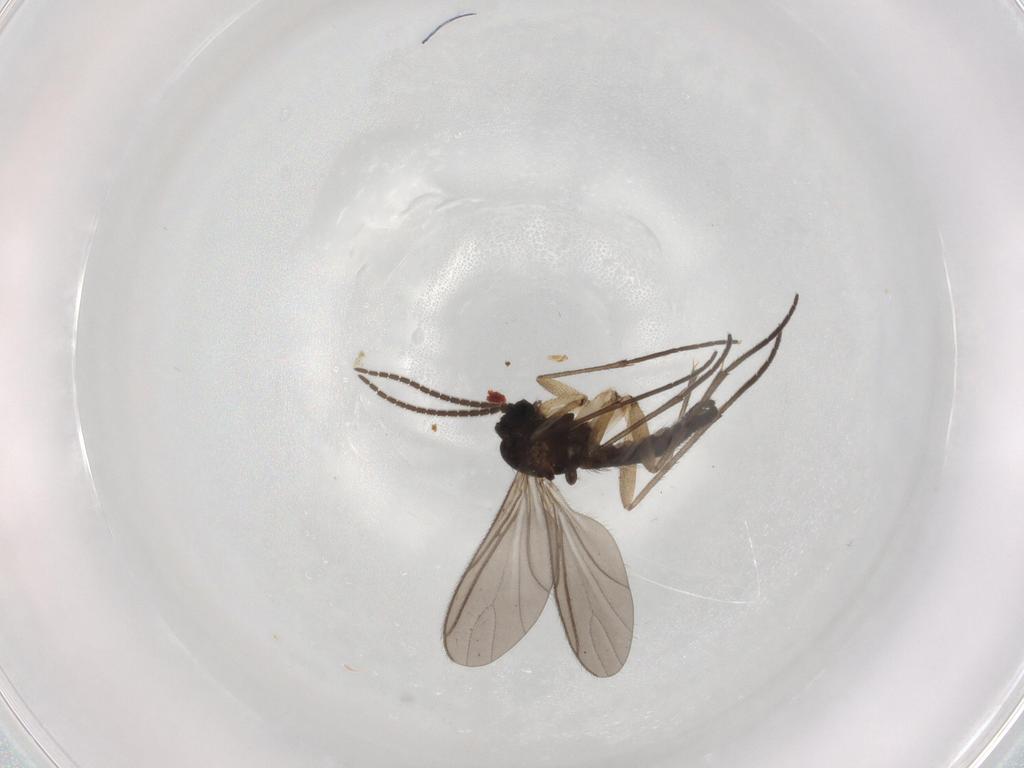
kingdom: Animalia
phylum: Arthropoda
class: Insecta
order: Diptera
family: Sciaridae
